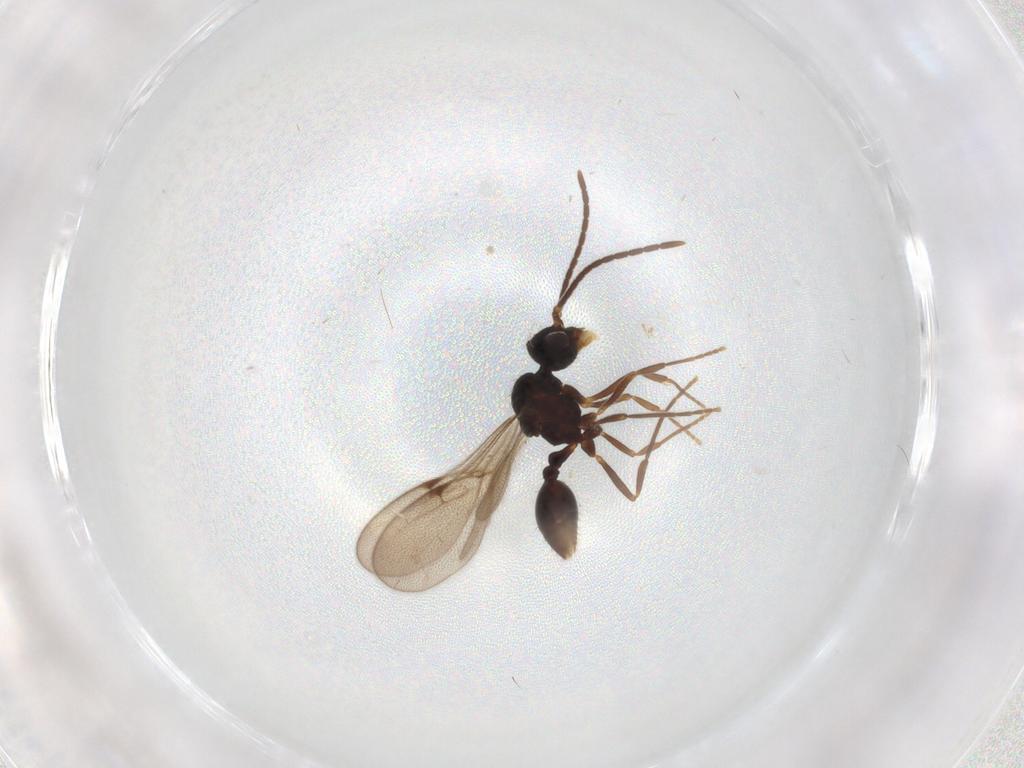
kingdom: Animalia
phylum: Arthropoda
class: Insecta
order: Hymenoptera
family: Formicidae
